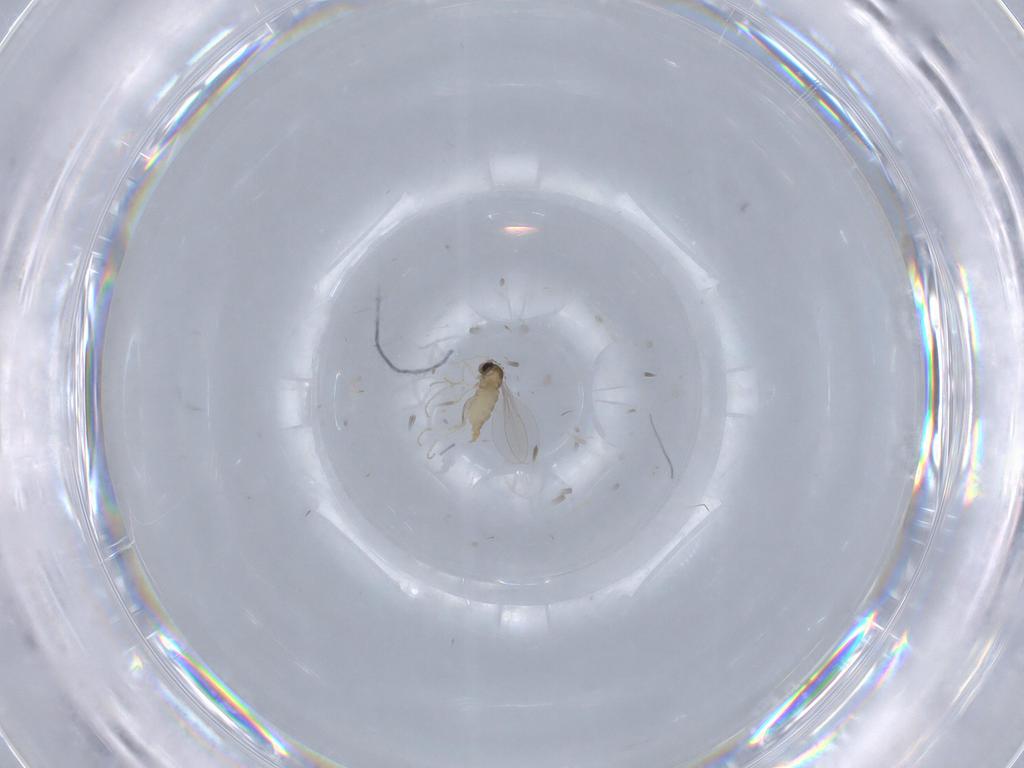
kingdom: Animalia
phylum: Arthropoda
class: Insecta
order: Diptera
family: Cecidomyiidae
